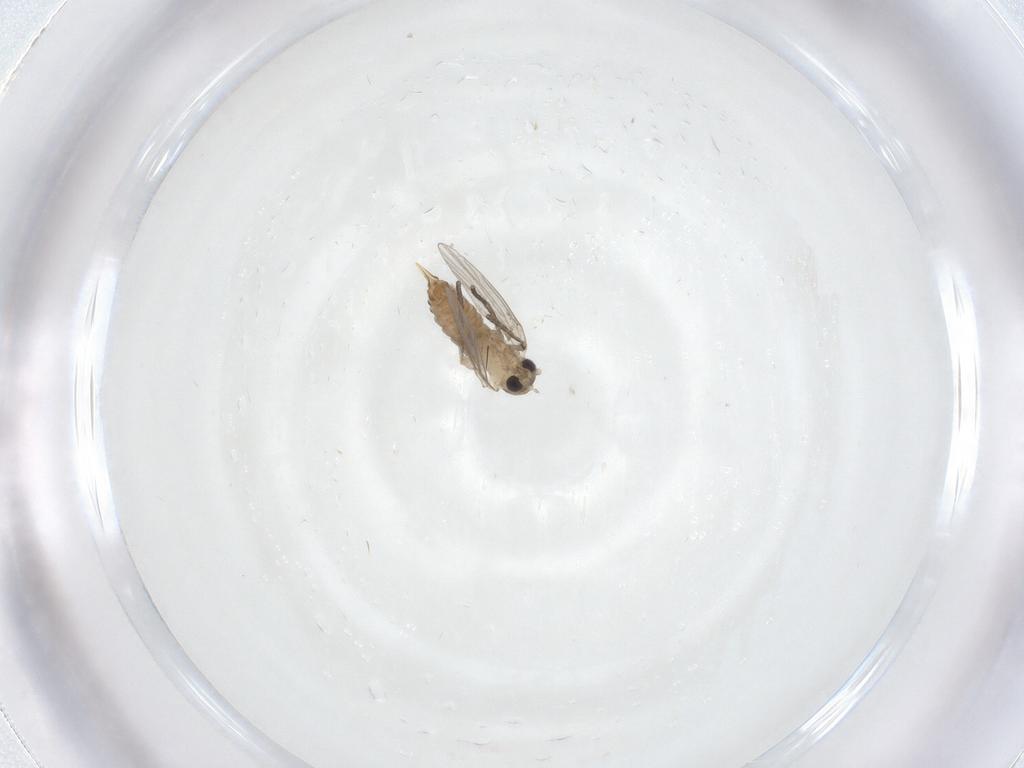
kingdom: Animalia
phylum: Arthropoda
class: Insecta
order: Diptera
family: Psychodidae
